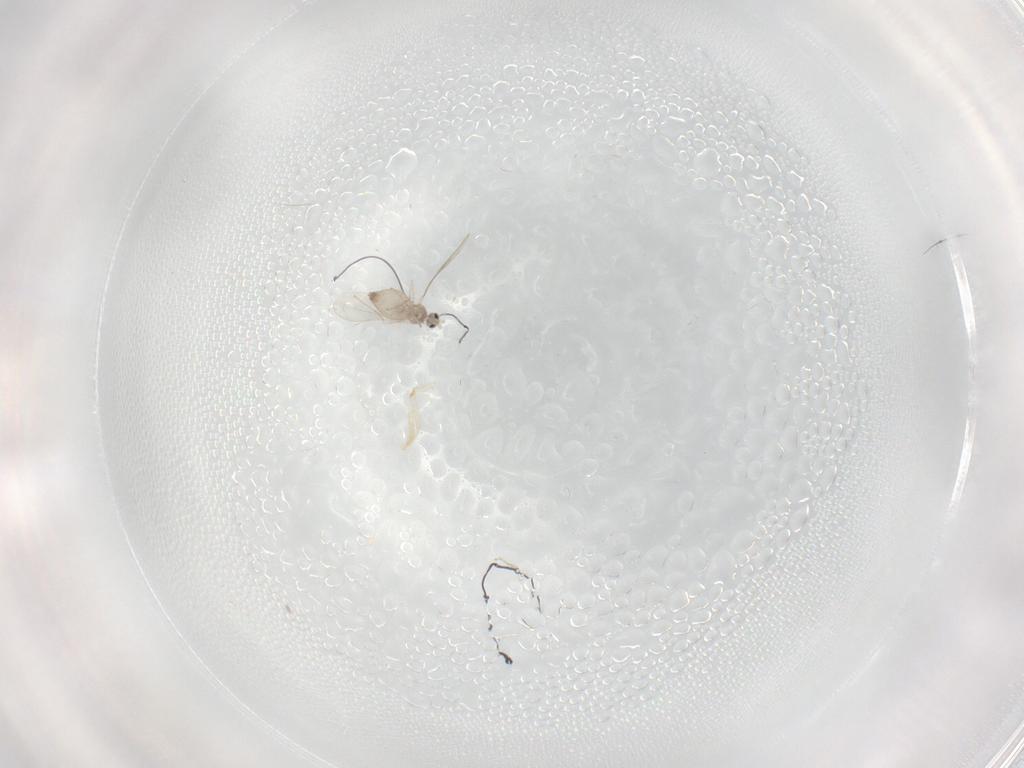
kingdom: Animalia
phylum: Arthropoda
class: Insecta
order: Diptera
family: Cecidomyiidae
